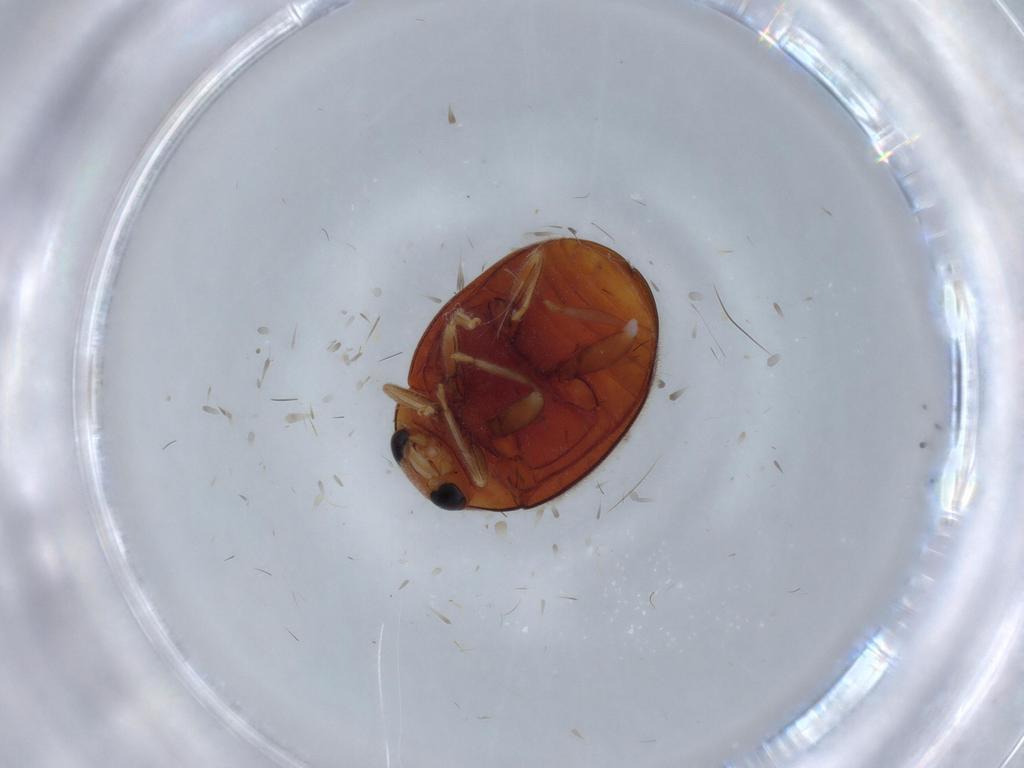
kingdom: Animalia
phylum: Arthropoda
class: Insecta
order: Coleoptera
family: Coccinellidae
